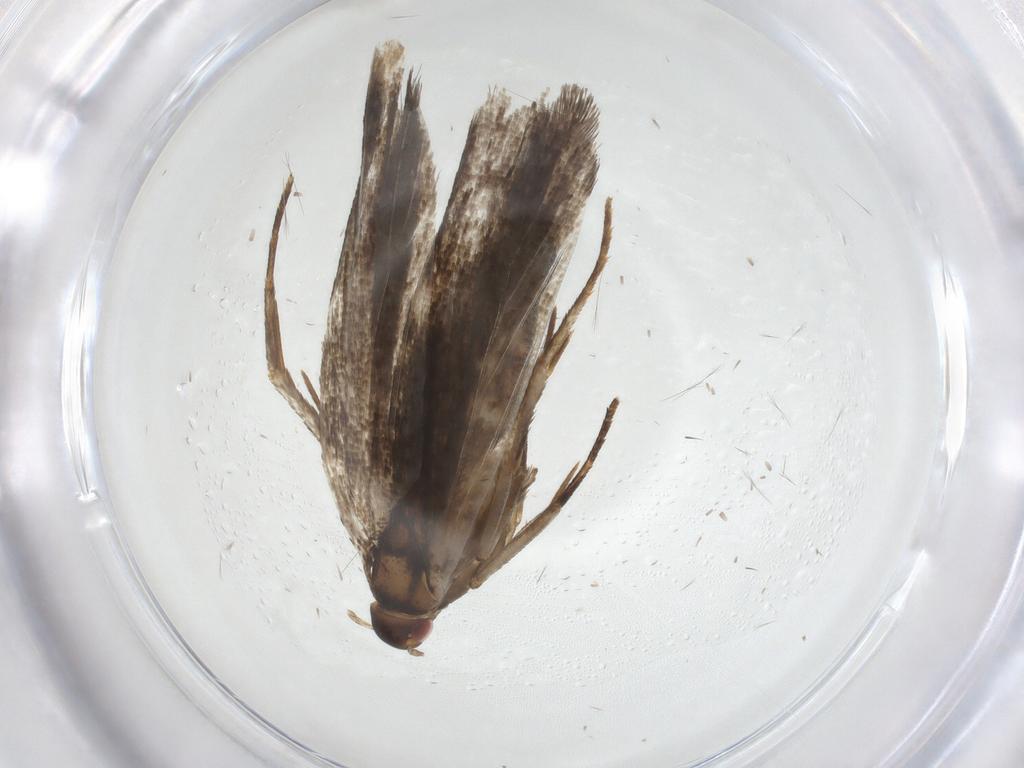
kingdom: Animalia
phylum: Arthropoda
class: Insecta
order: Lepidoptera
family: Gelechiidae
